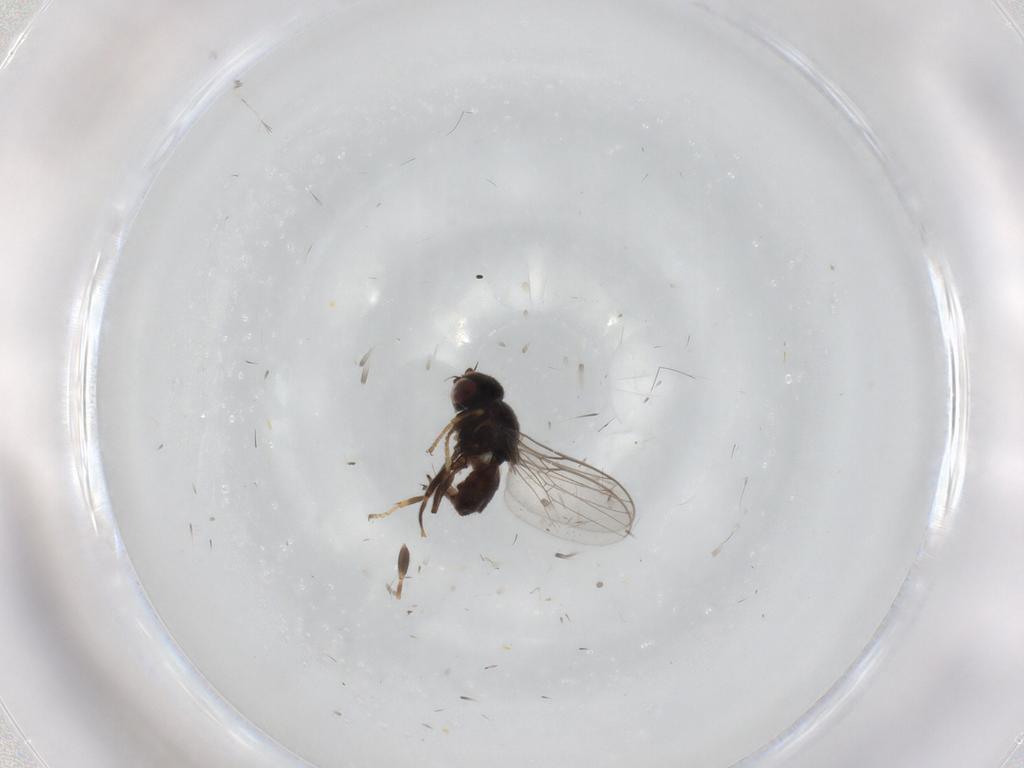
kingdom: Animalia
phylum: Arthropoda
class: Insecta
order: Diptera
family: Chloropidae
